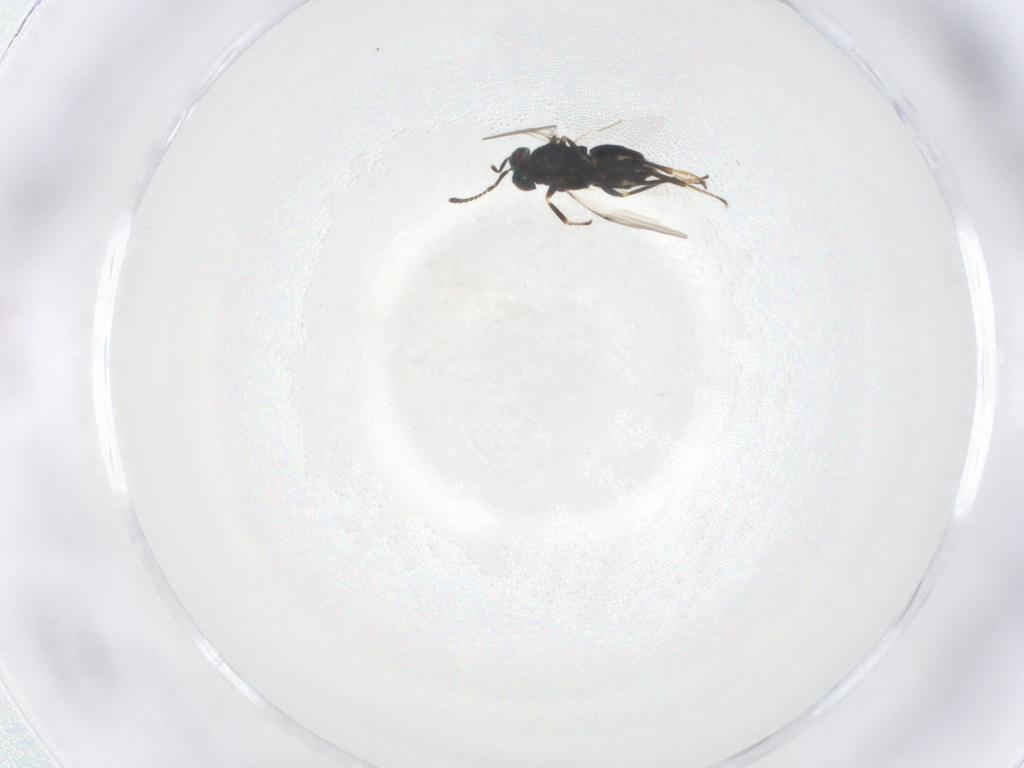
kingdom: Animalia
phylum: Arthropoda
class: Insecta
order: Hymenoptera
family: Encyrtidae
